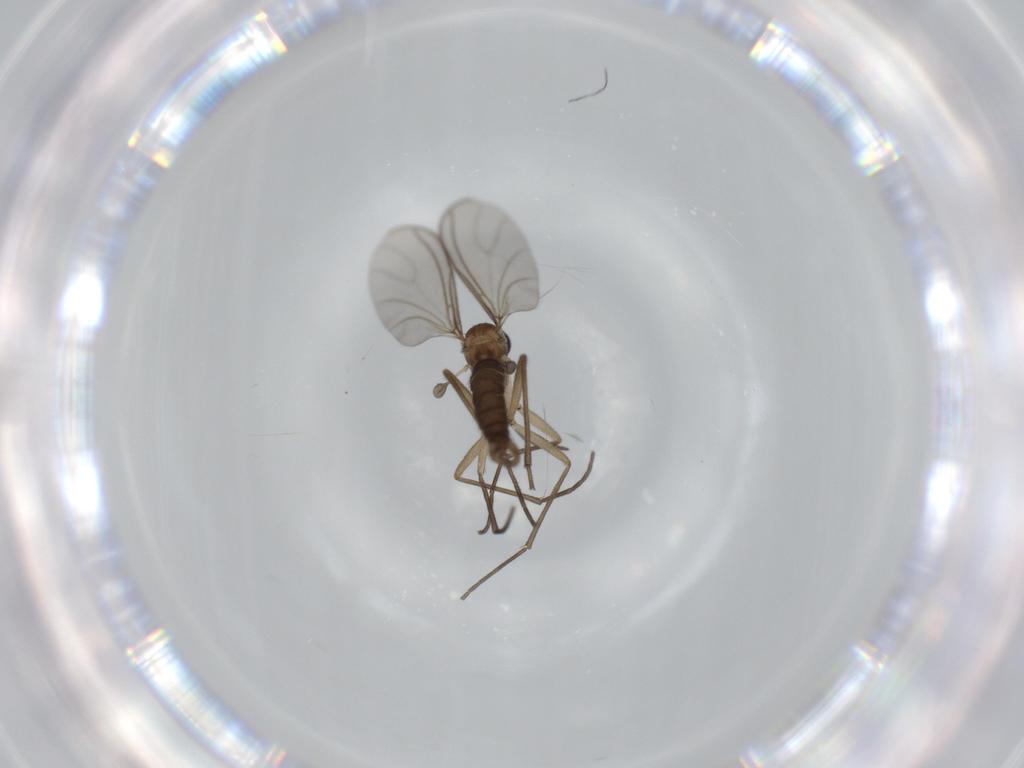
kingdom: Animalia
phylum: Arthropoda
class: Insecta
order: Diptera
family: Sciaridae
